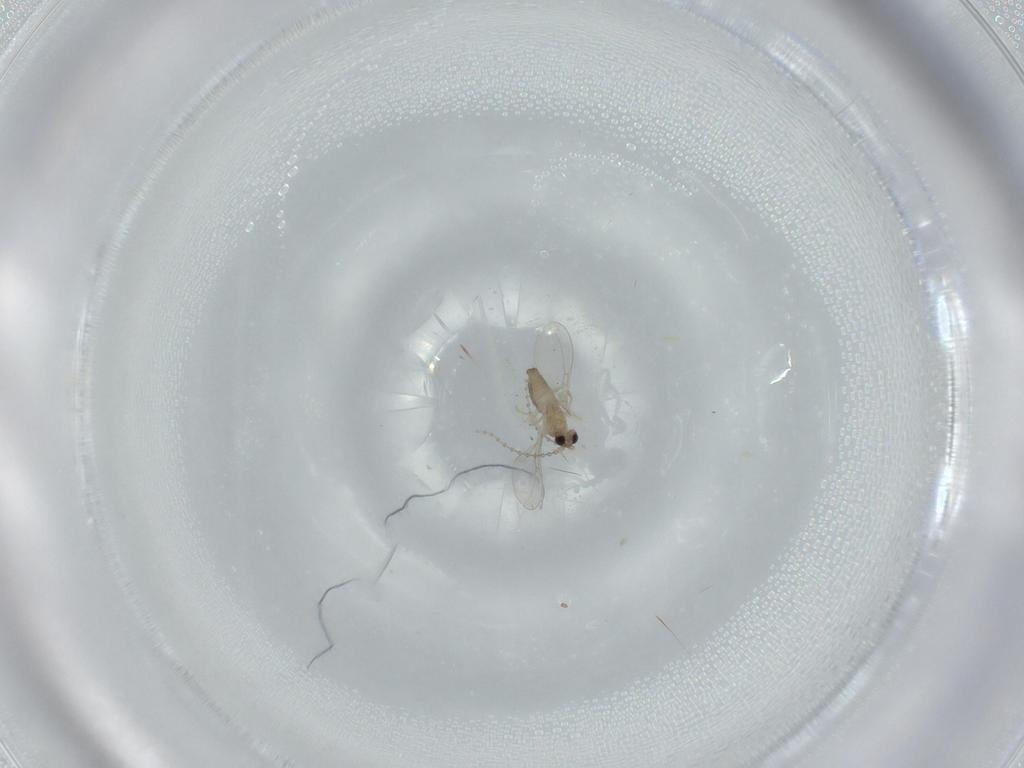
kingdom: Animalia
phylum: Arthropoda
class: Insecta
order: Diptera
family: Cecidomyiidae
